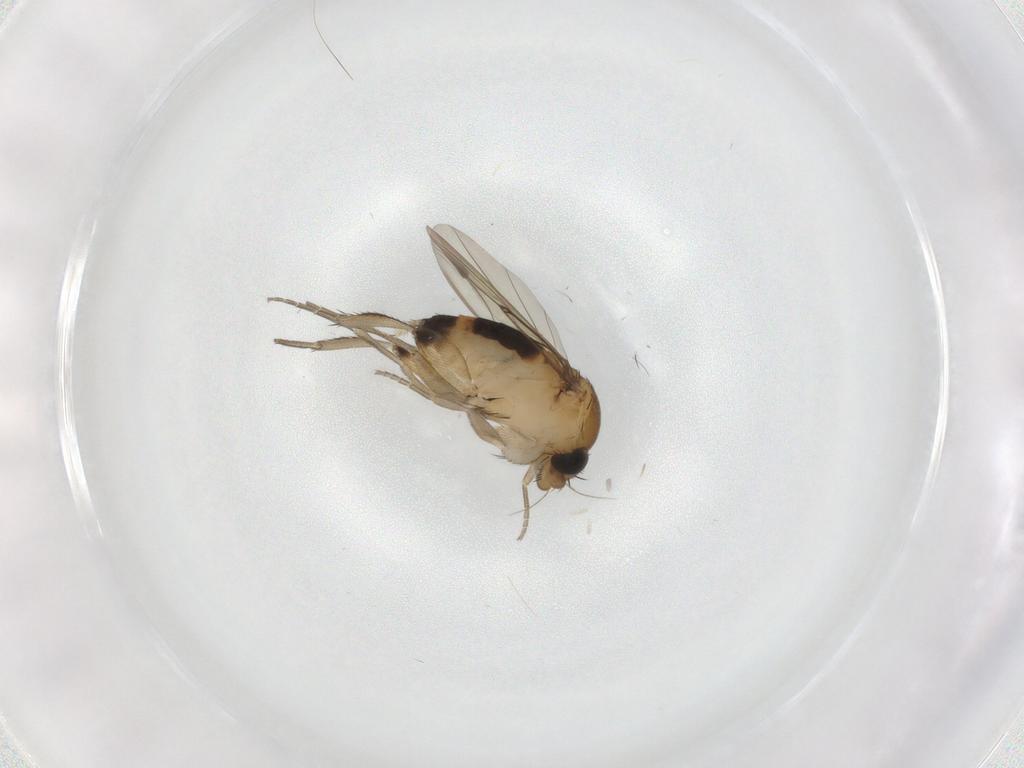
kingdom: Animalia
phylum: Arthropoda
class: Insecta
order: Diptera
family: Phoridae
